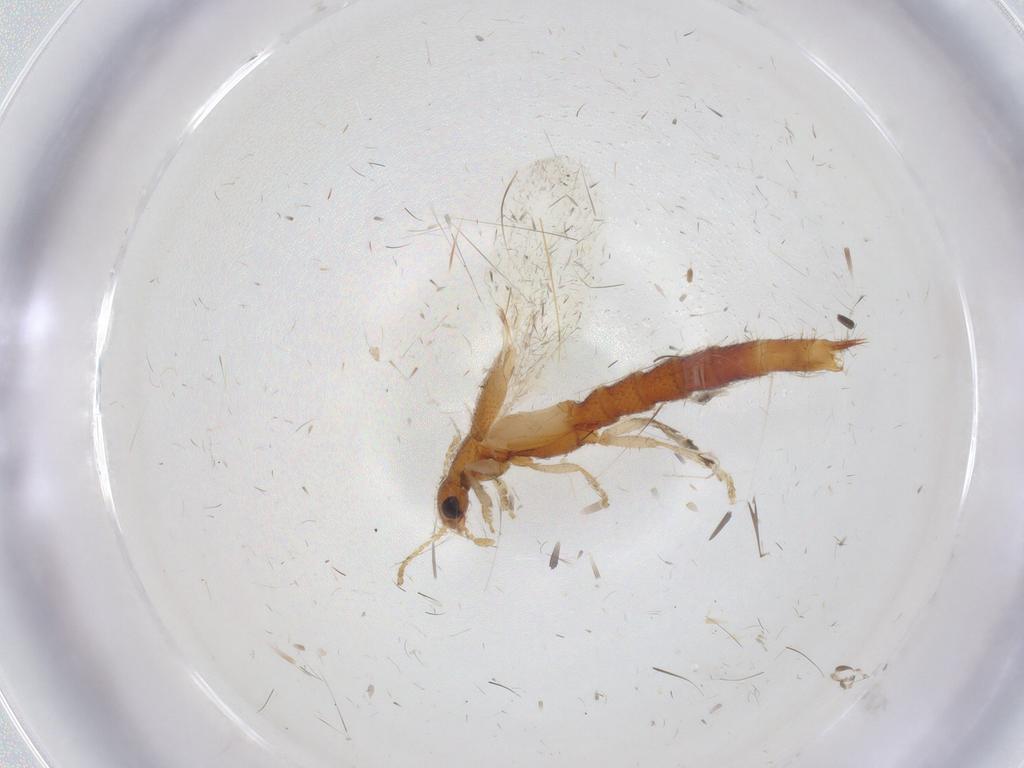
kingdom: Animalia
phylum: Arthropoda
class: Insecta
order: Coleoptera
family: Staphylinidae
